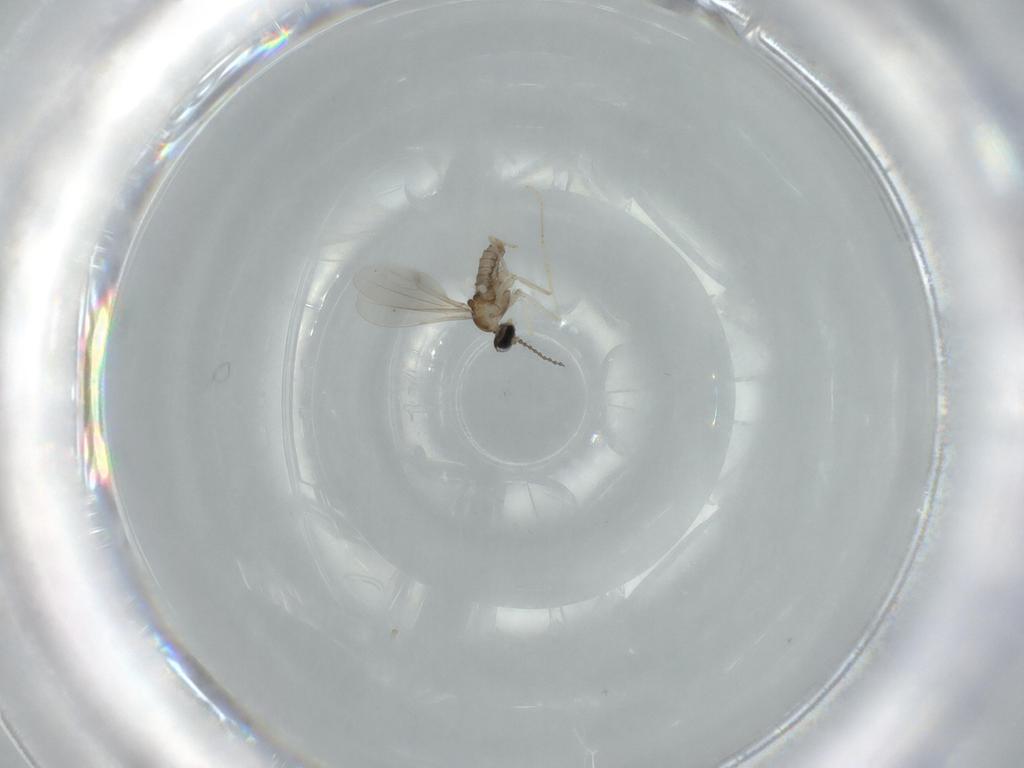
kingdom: Animalia
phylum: Arthropoda
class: Insecta
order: Diptera
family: Cecidomyiidae
